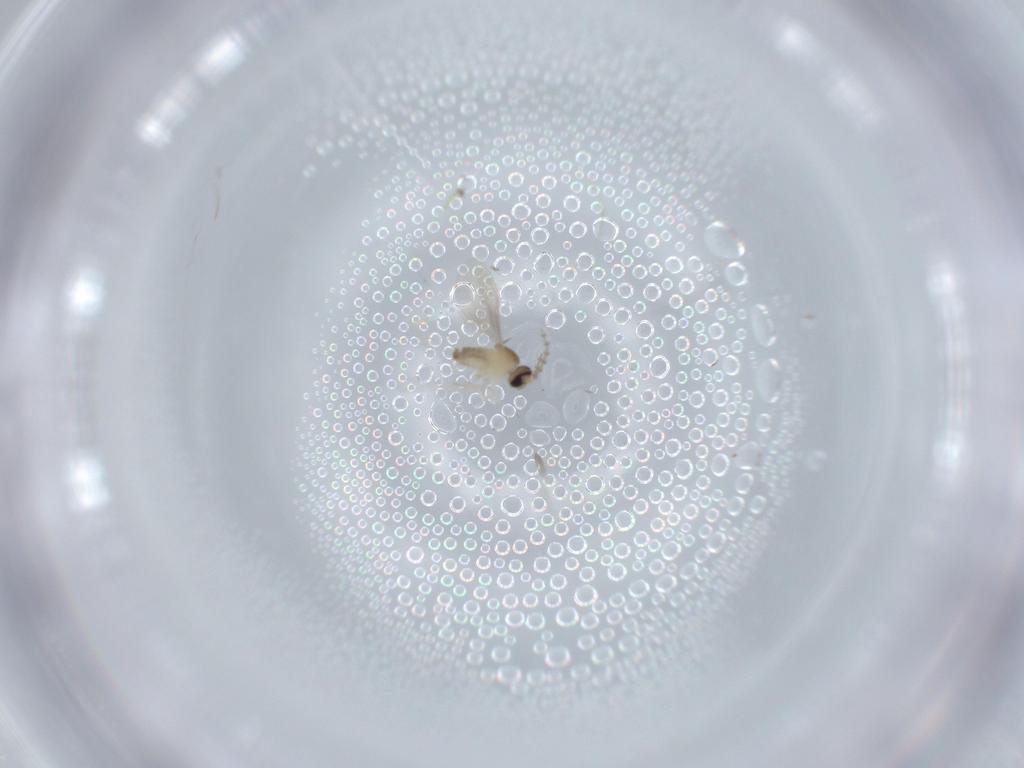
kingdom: Animalia
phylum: Arthropoda
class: Insecta
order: Diptera
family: Cecidomyiidae
